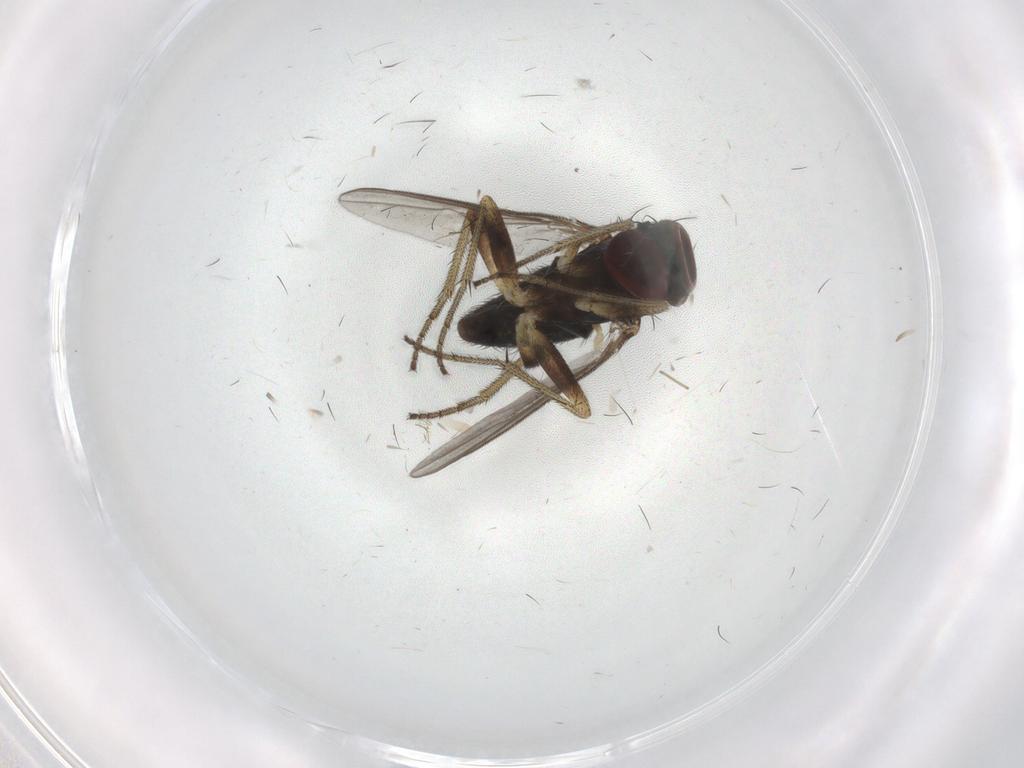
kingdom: Animalia
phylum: Arthropoda
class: Insecta
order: Diptera
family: Cecidomyiidae
